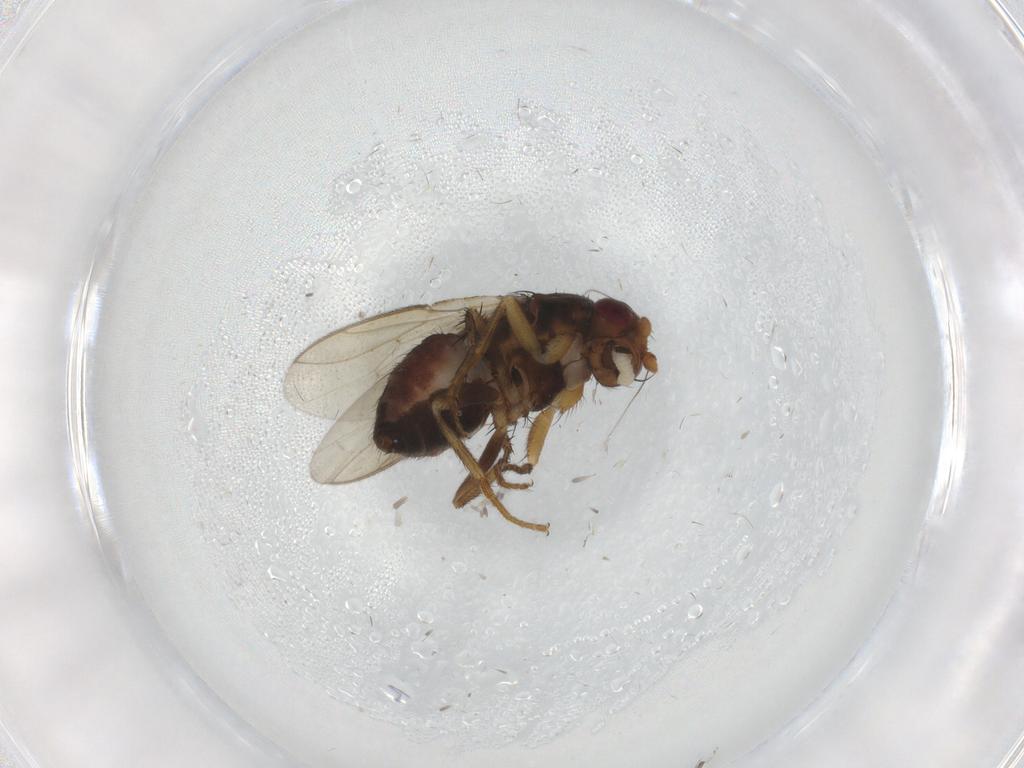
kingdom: Animalia
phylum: Arthropoda
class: Insecta
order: Diptera
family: Sphaeroceridae
